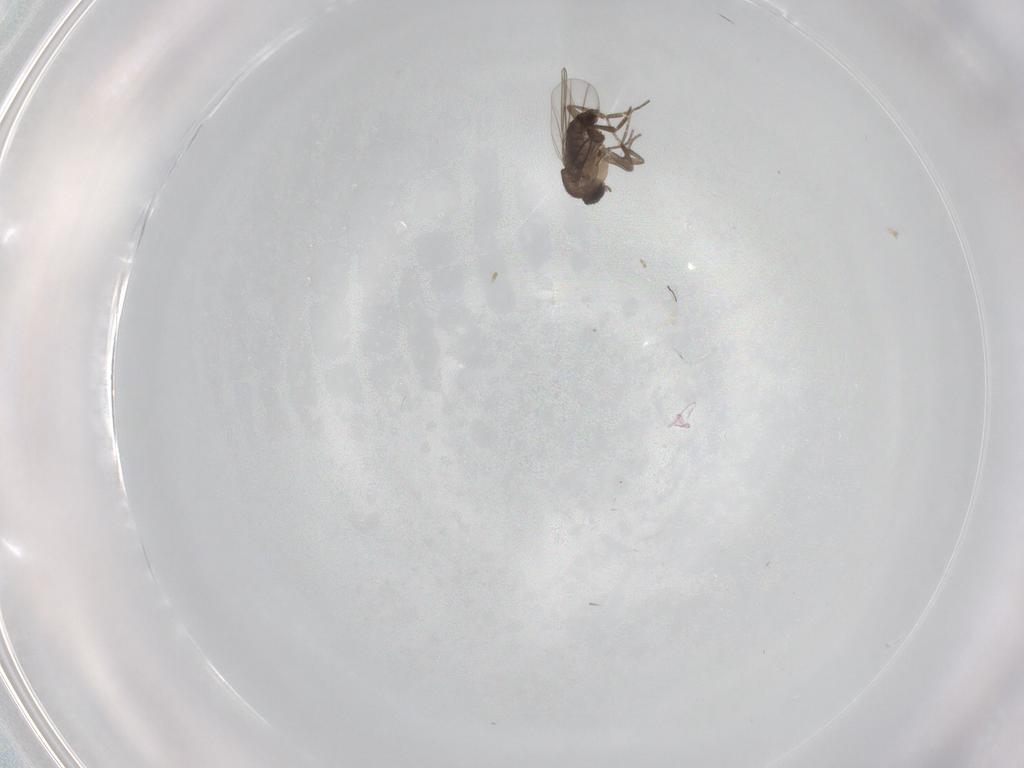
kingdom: Animalia
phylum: Arthropoda
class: Insecta
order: Diptera
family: Phoridae
